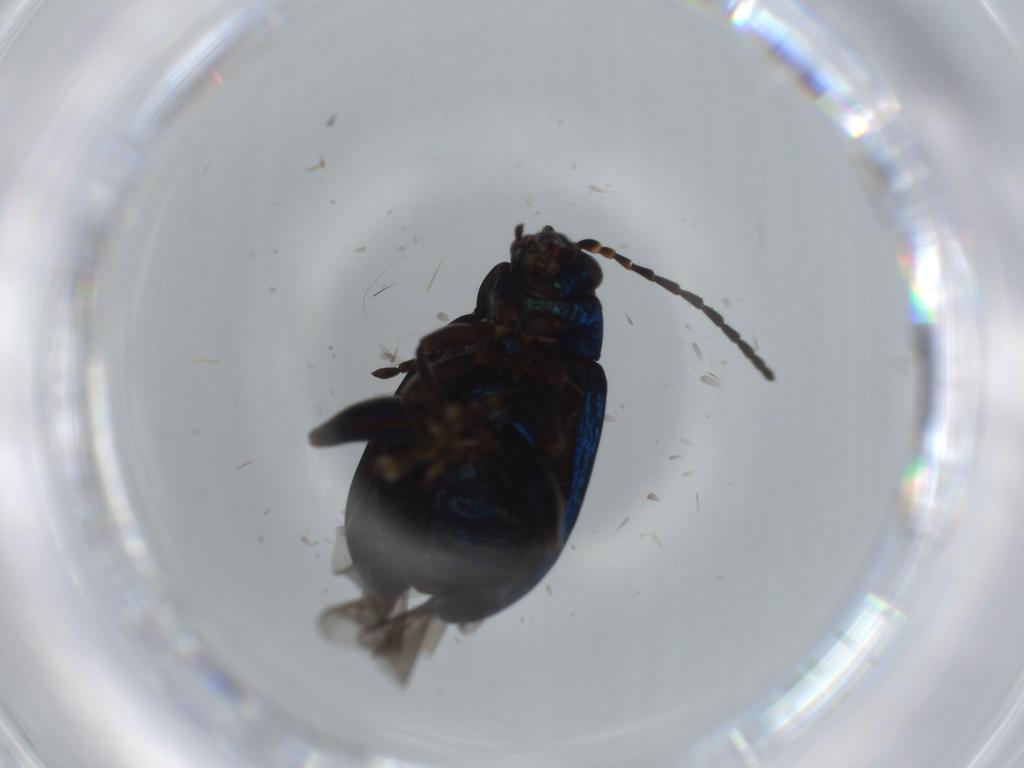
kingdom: Animalia
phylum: Arthropoda
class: Insecta
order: Coleoptera
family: Chrysomelidae
